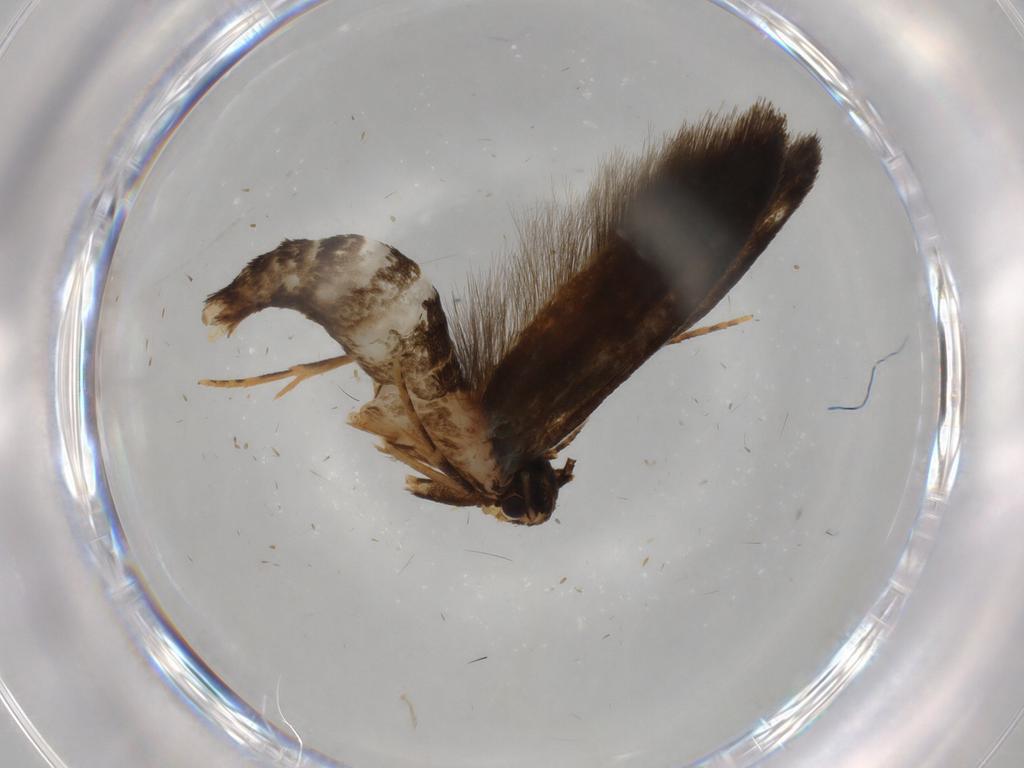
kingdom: Animalia
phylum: Arthropoda
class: Insecta
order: Lepidoptera
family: Tineidae
